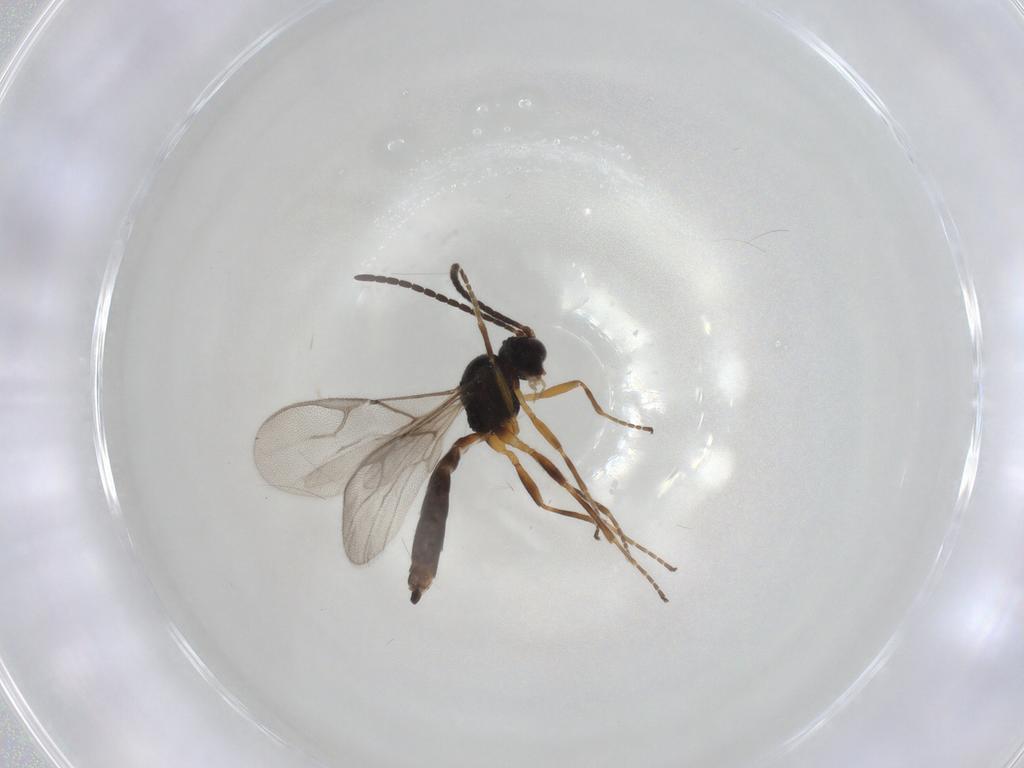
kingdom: Animalia
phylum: Arthropoda
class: Insecta
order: Hymenoptera
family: Braconidae
